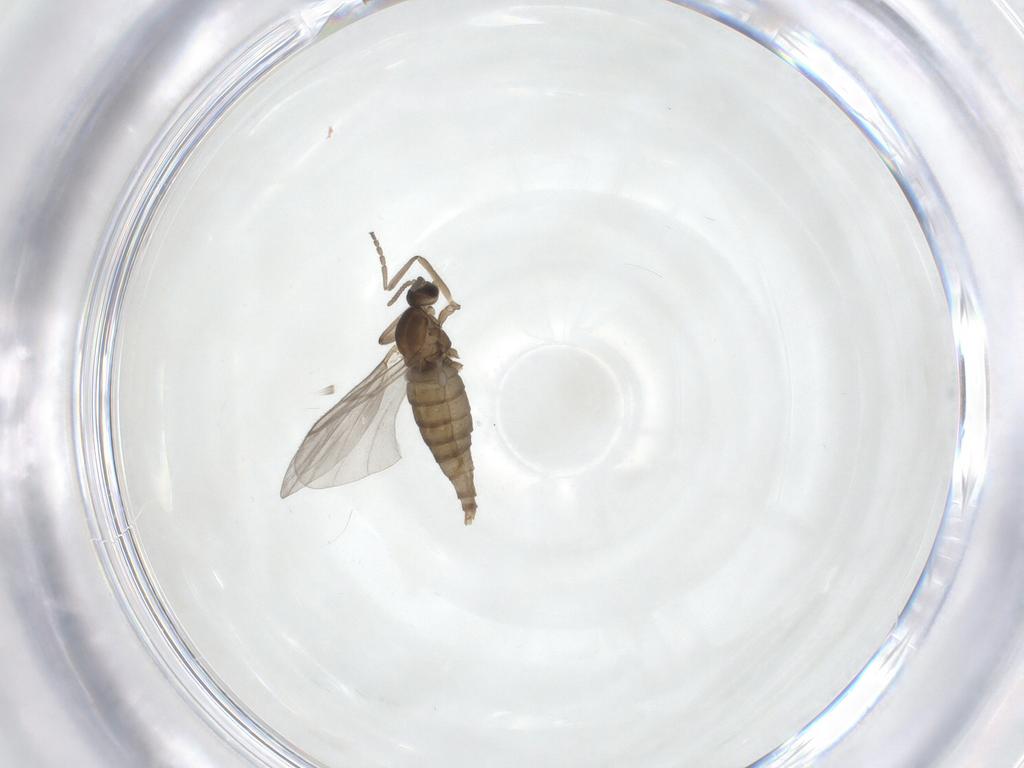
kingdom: Animalia
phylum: Arthropoda
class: Insecta
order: Diptera
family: Cecidomyiidae
